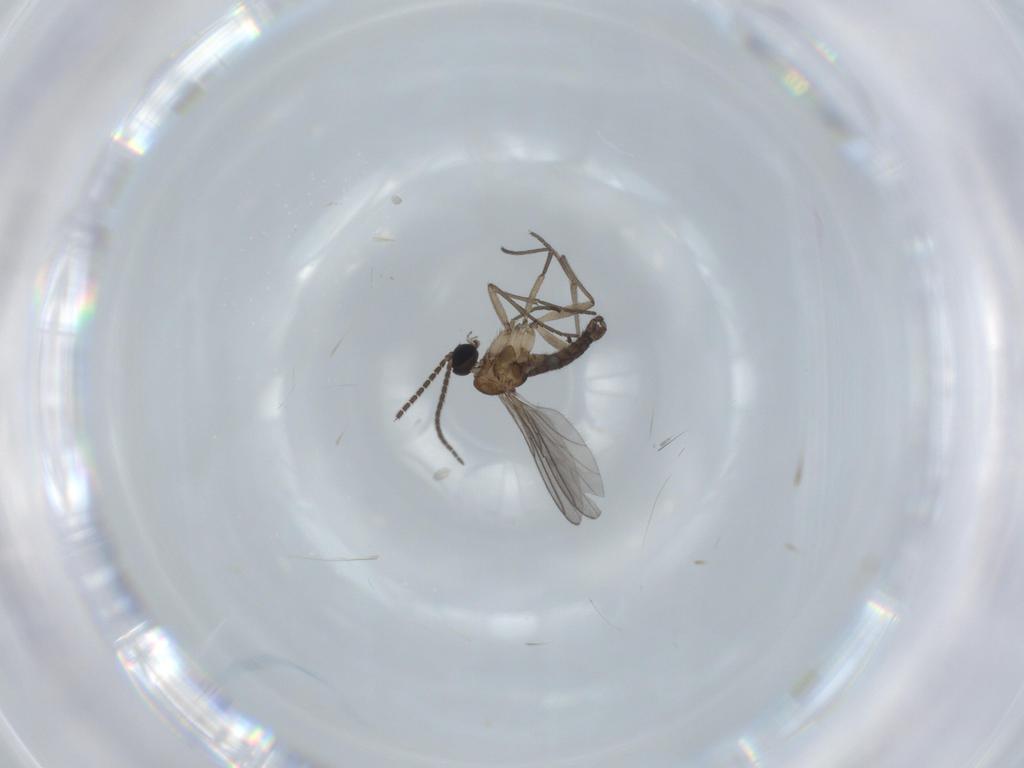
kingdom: Animalia
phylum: Arthropoda
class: Insecta
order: Diptera
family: Sciaridae
